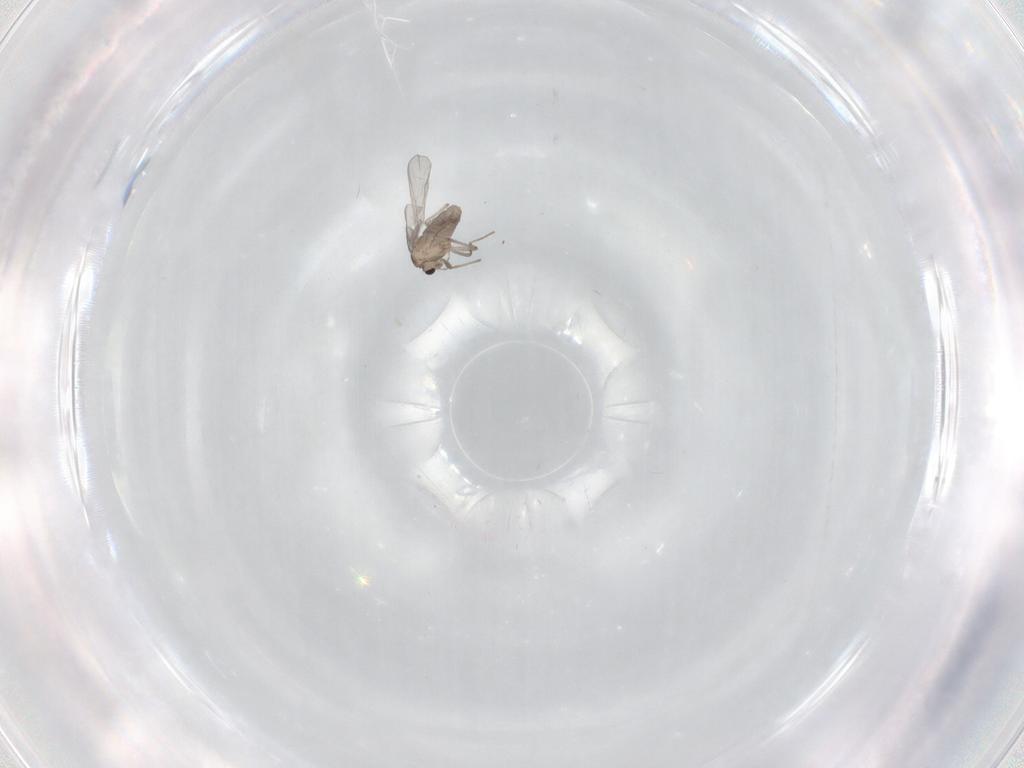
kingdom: Animalia
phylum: Arthropoda
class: Insecta
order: Diptera
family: Chironomidae
